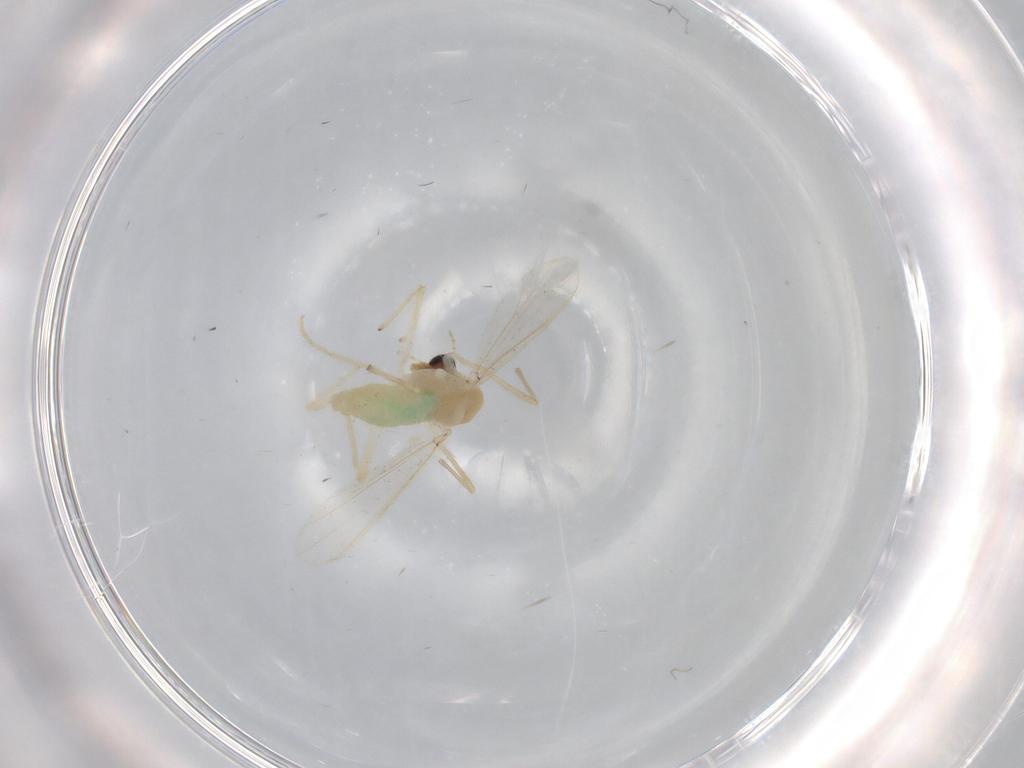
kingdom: Animalia
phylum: Arthropoda
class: Insecta
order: Diptera
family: Chironomidae
